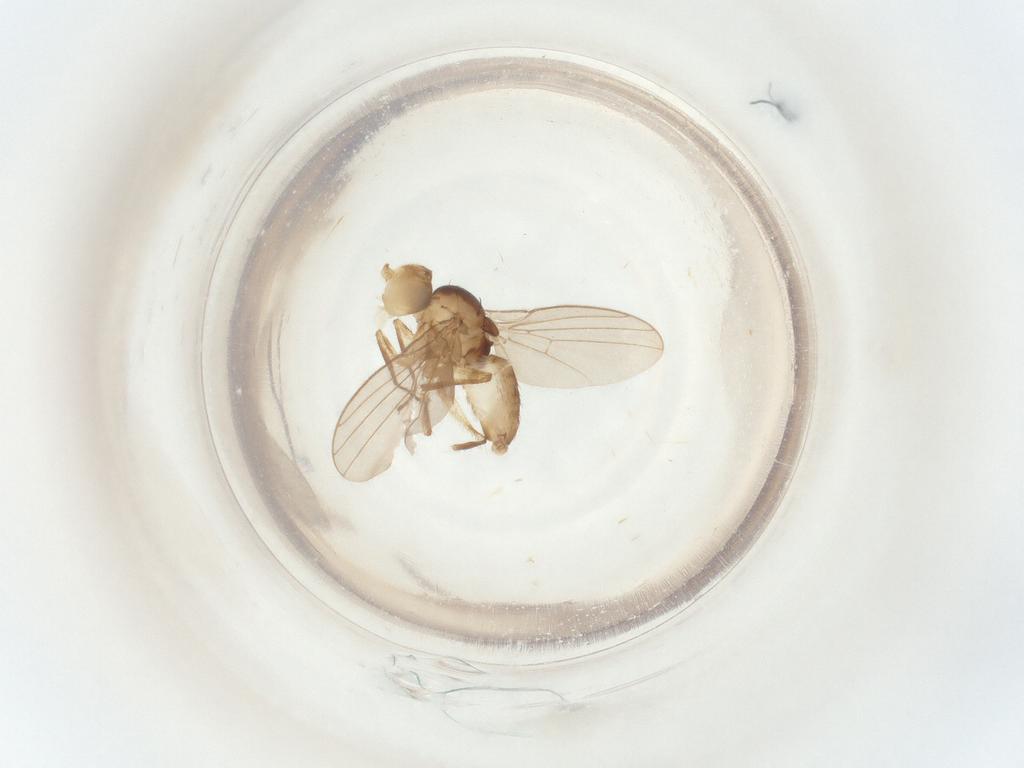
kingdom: Animalia
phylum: Arthropoda
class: Insecta
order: Diptera
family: Agromyzidae
